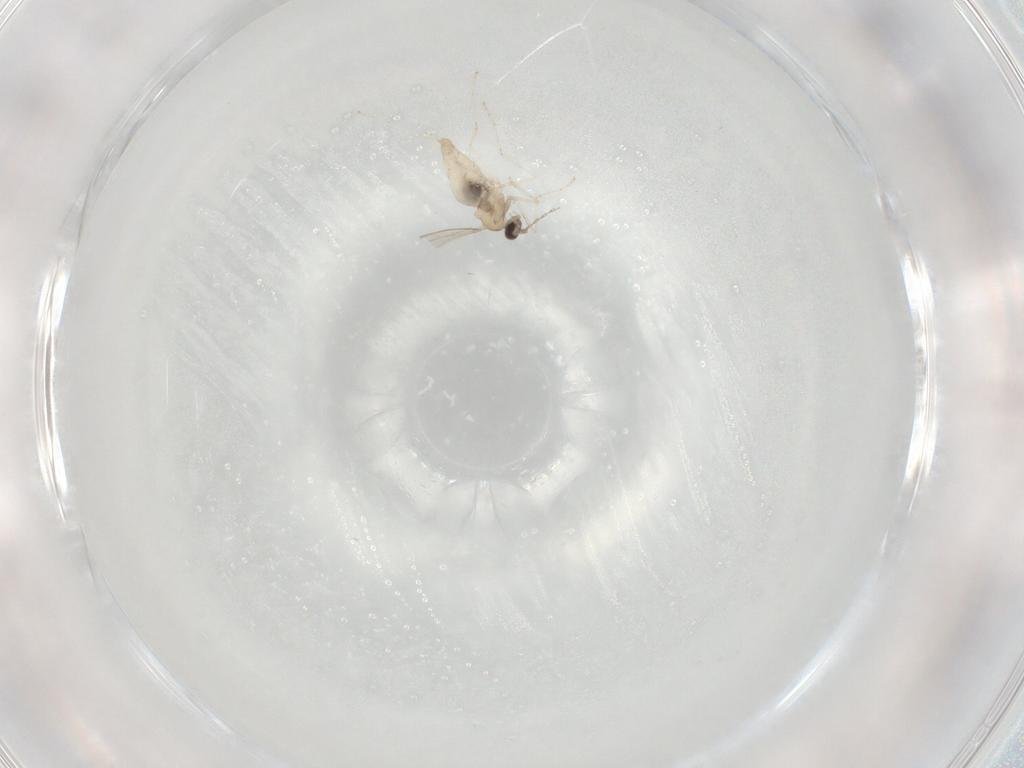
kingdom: Animalia
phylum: Arthropoda
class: Insecta
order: Diptera
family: Cecidomyiidae
